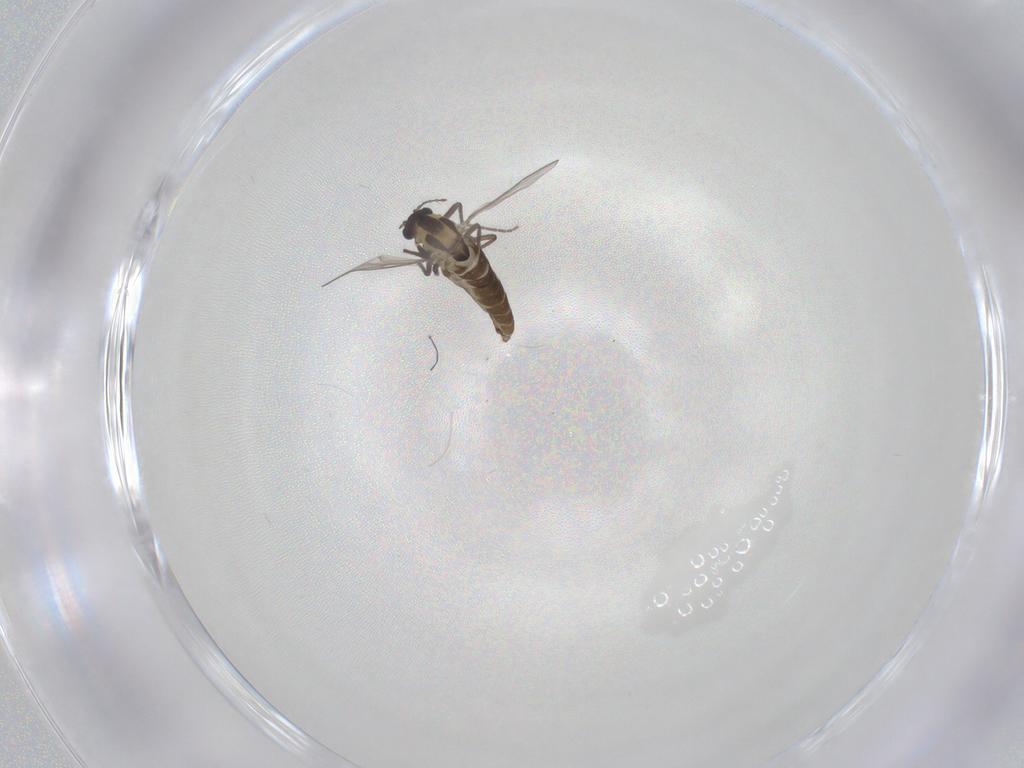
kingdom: Animalia
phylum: Arthropoda
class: Insecta
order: Diptera
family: Chironomidae
